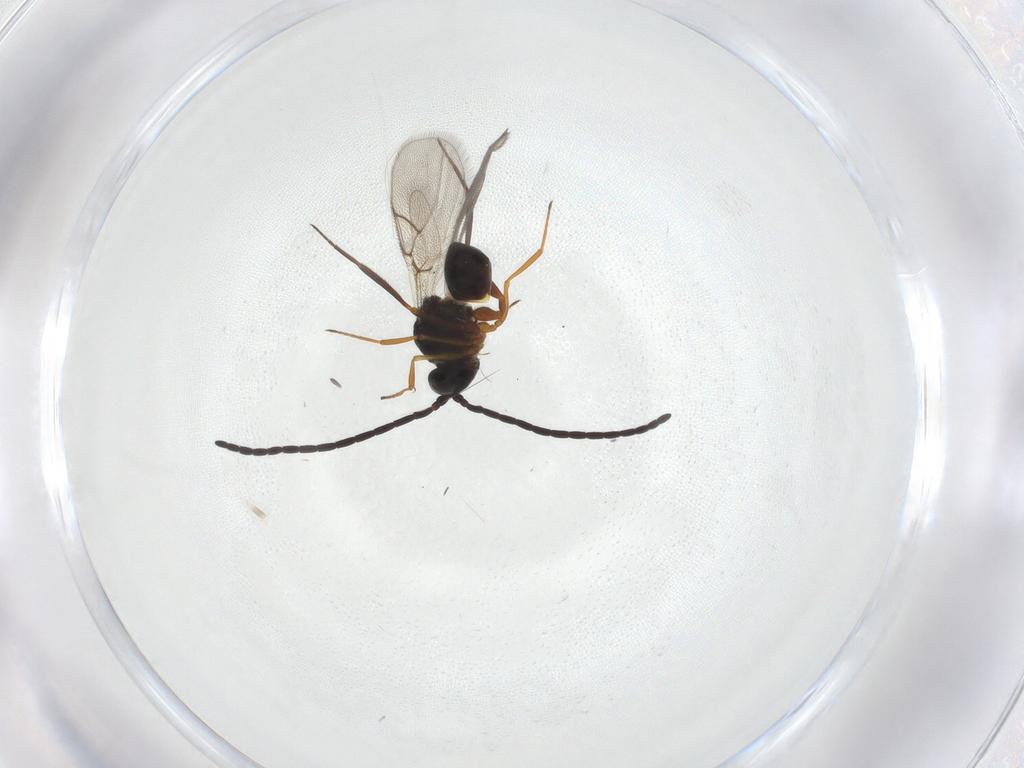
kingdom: Animalia
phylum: Arthropoda
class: Insecta
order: Hymenoptera
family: Figitidae
